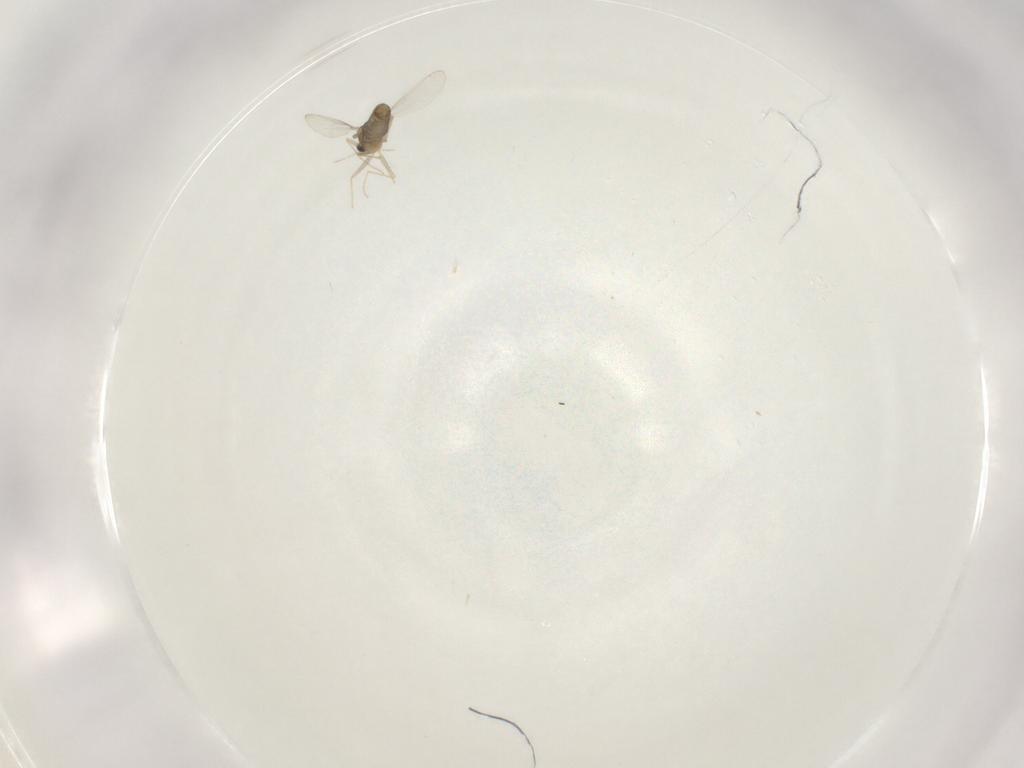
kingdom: Animalia
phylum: Arthropoda
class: Insecta
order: Diptera
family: Chironomidae
